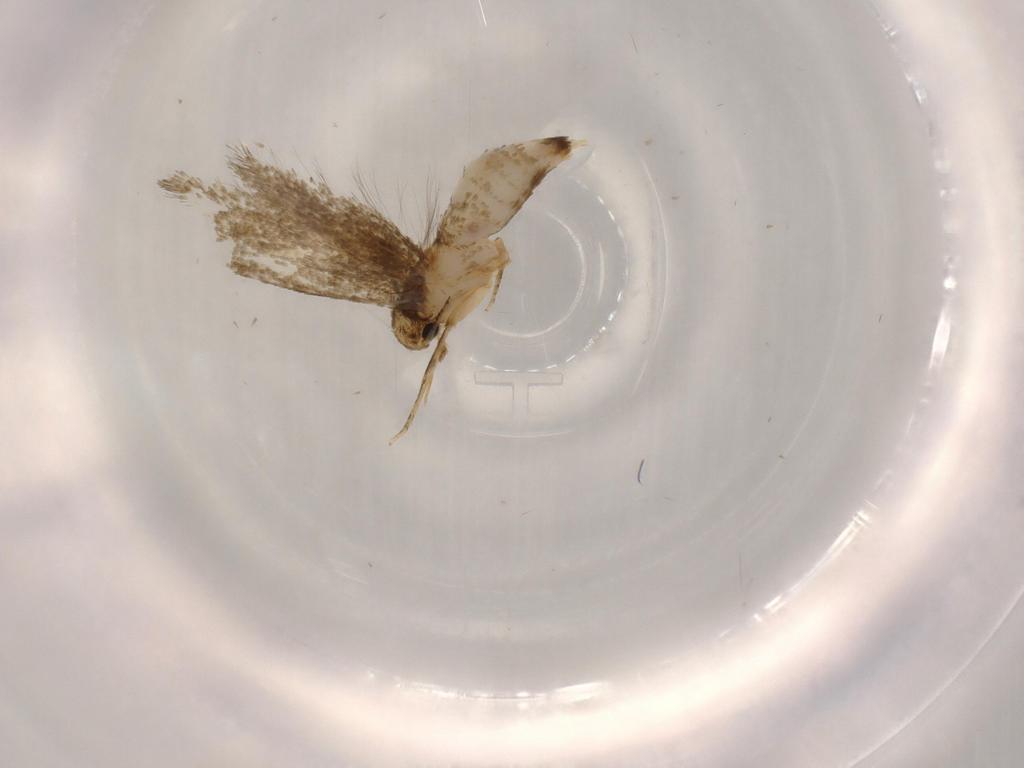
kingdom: Animalia
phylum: Arthropoda
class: Insecta
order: Lepidoptera
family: Tineidae
